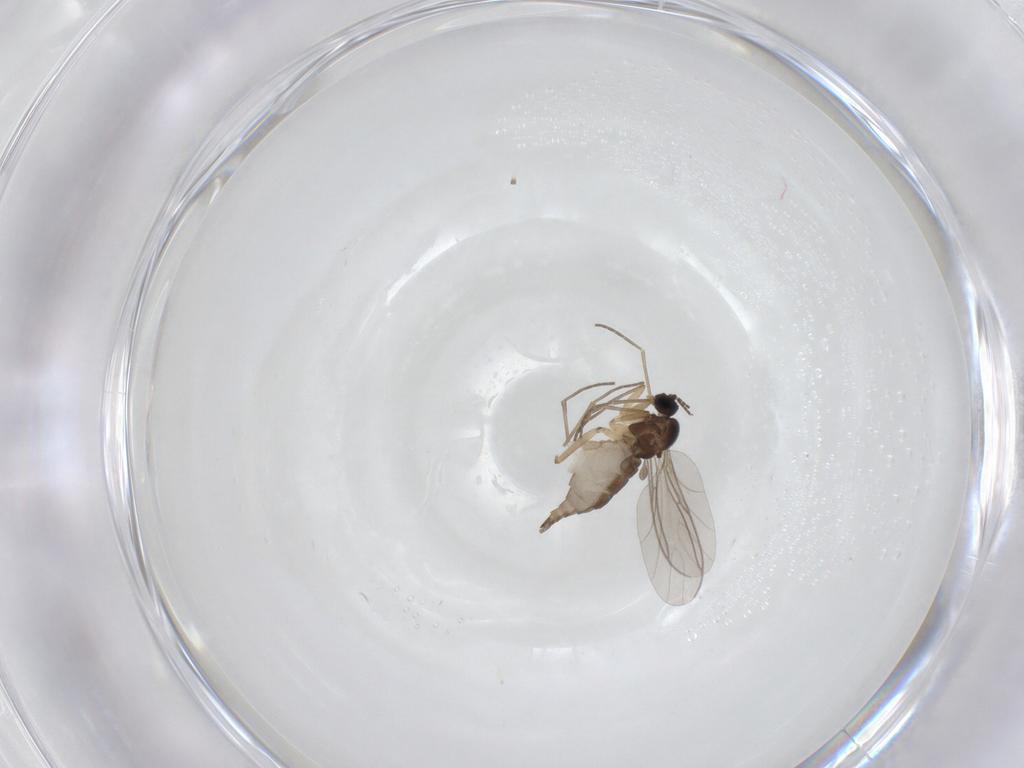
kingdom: Animalia
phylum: Arthropoda
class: Insecta
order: Diptera
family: Sciaridae
